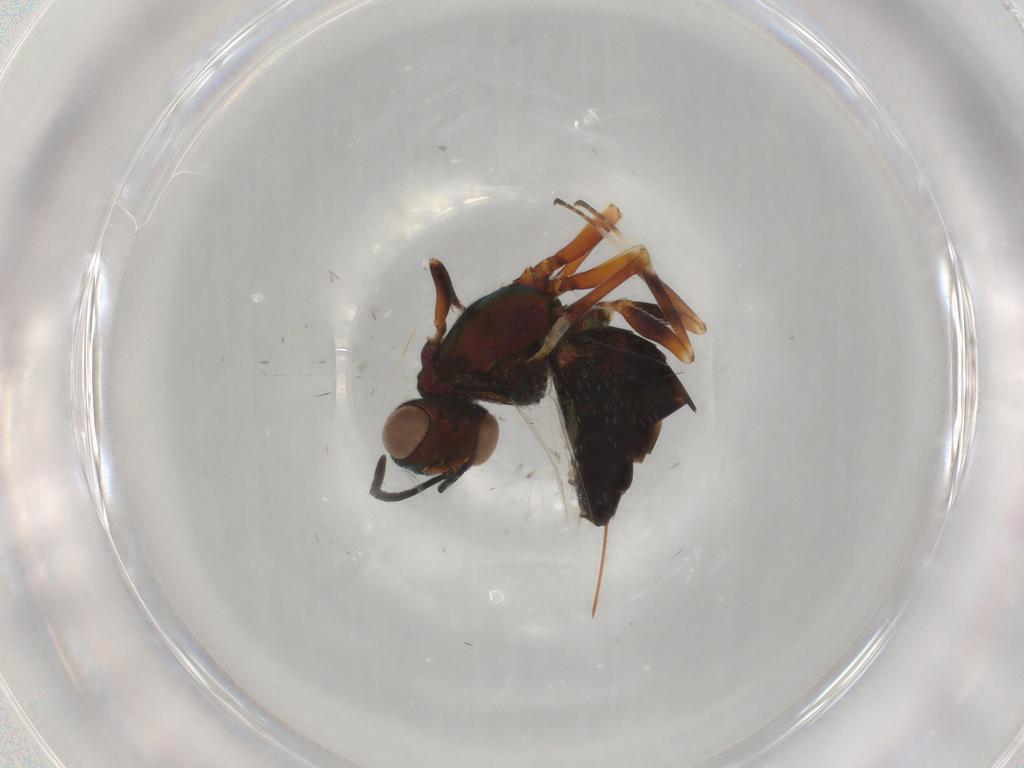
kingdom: Animalia
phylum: Arthropoda
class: Insecta
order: Hymenoptera
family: Eupelmidae
